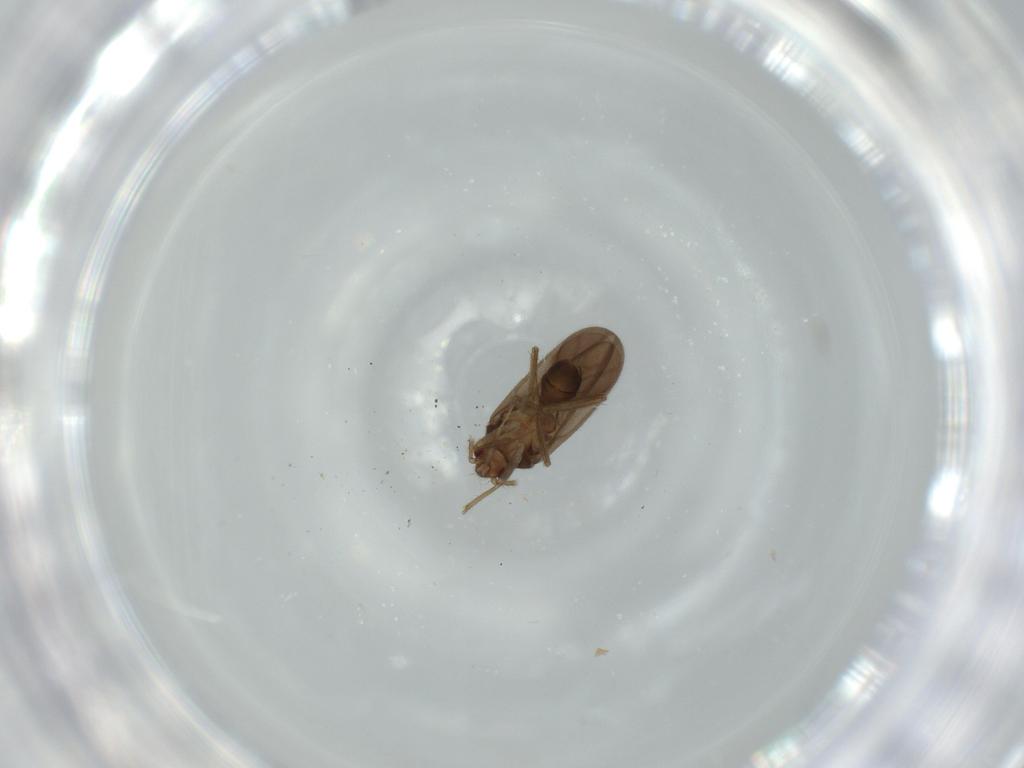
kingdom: Animalia
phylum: Arthropoda
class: Insecta
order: Hemiptera
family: Ceratocombidae
